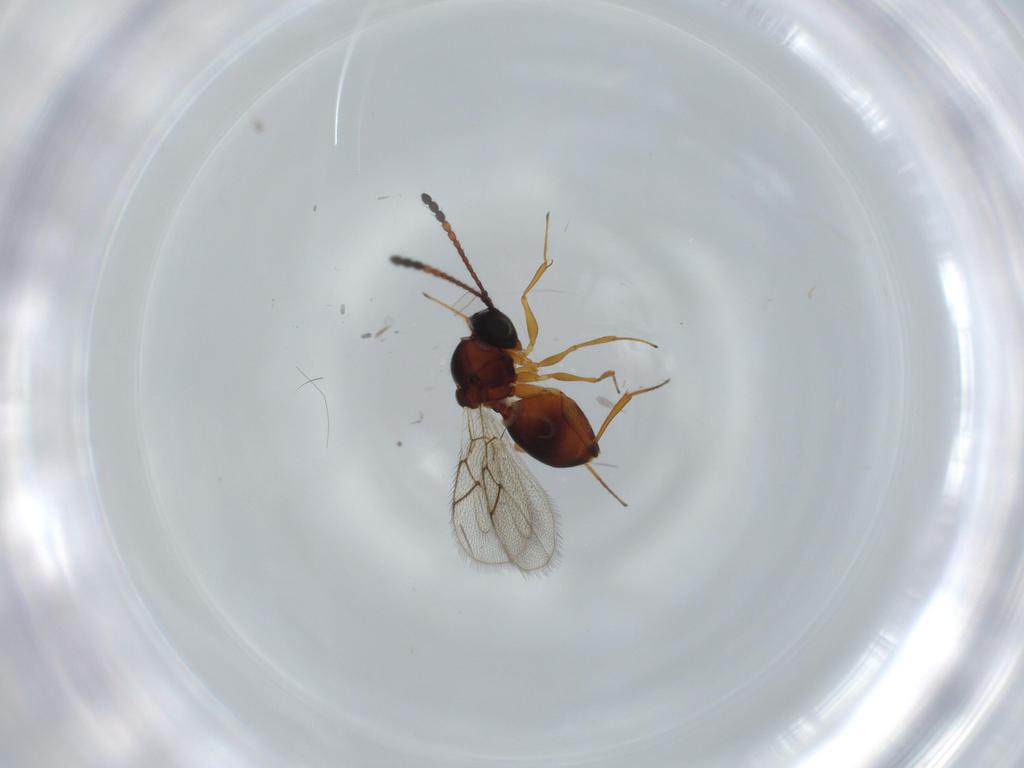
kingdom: Animalia
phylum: Arthropoda
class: Insecta
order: Hymenoptera
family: Figitidae
